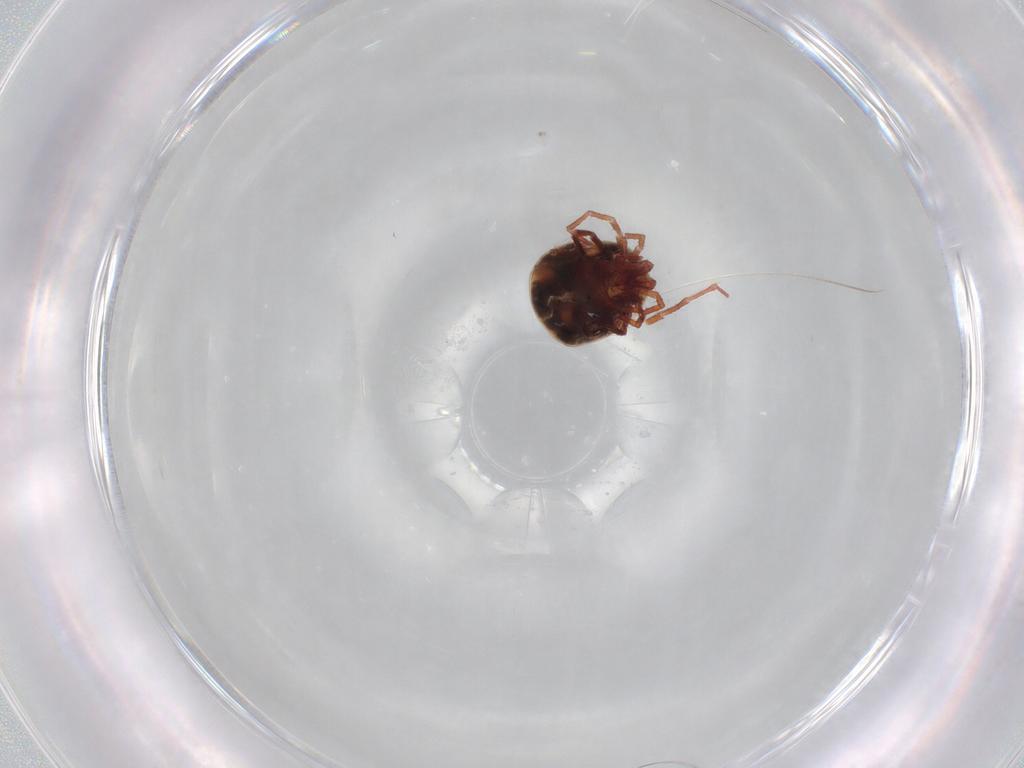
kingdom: Animalia
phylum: Arthropoda
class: Arachnida
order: Trombidiformes
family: Pionidae
